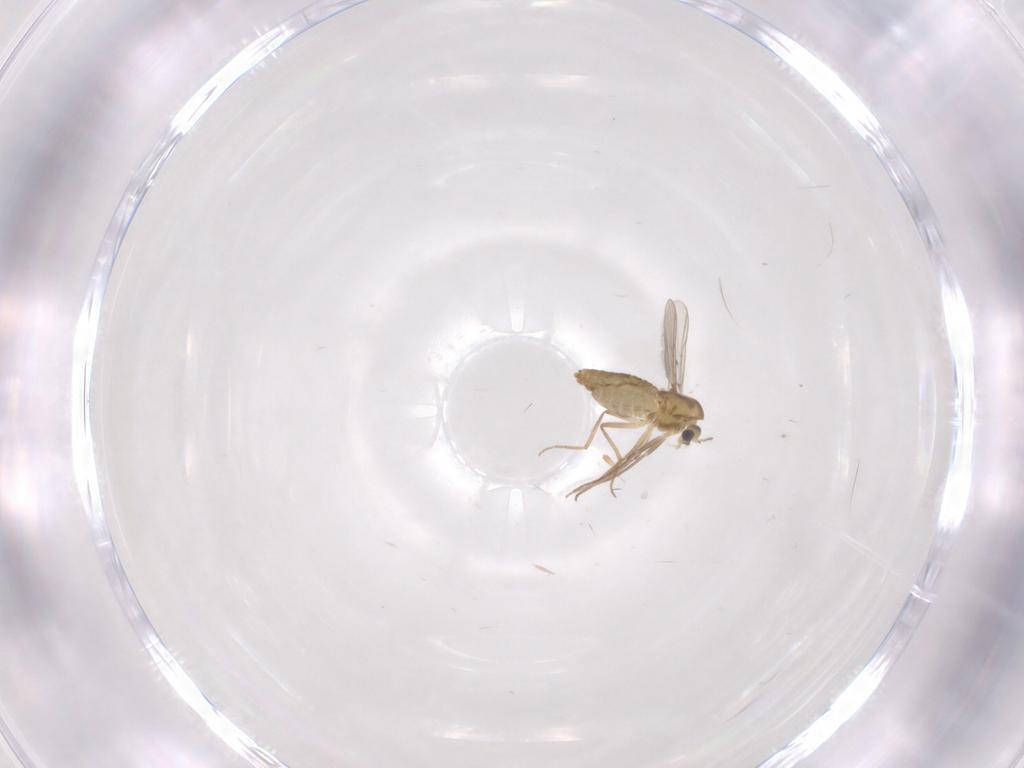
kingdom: Animalia
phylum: Arthropoda
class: Insecta
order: Diptera
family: Chironomidae
